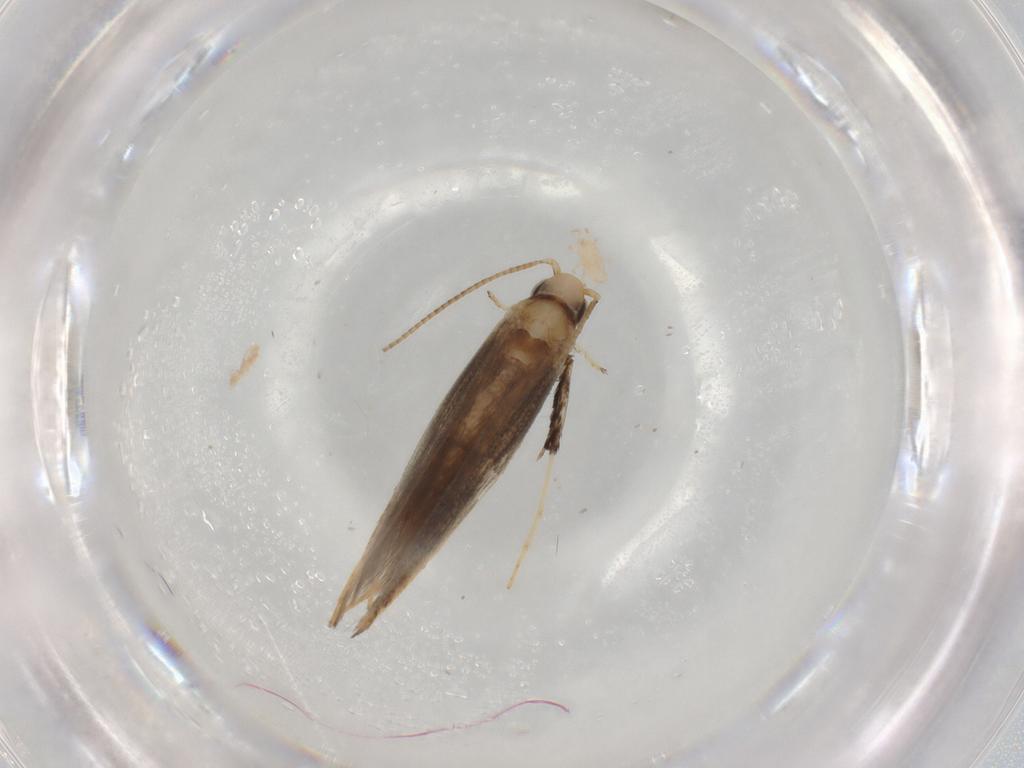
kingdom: Animalia
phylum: Arthropoda
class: Insecta
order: Lepidoptera
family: Gracillariidae
